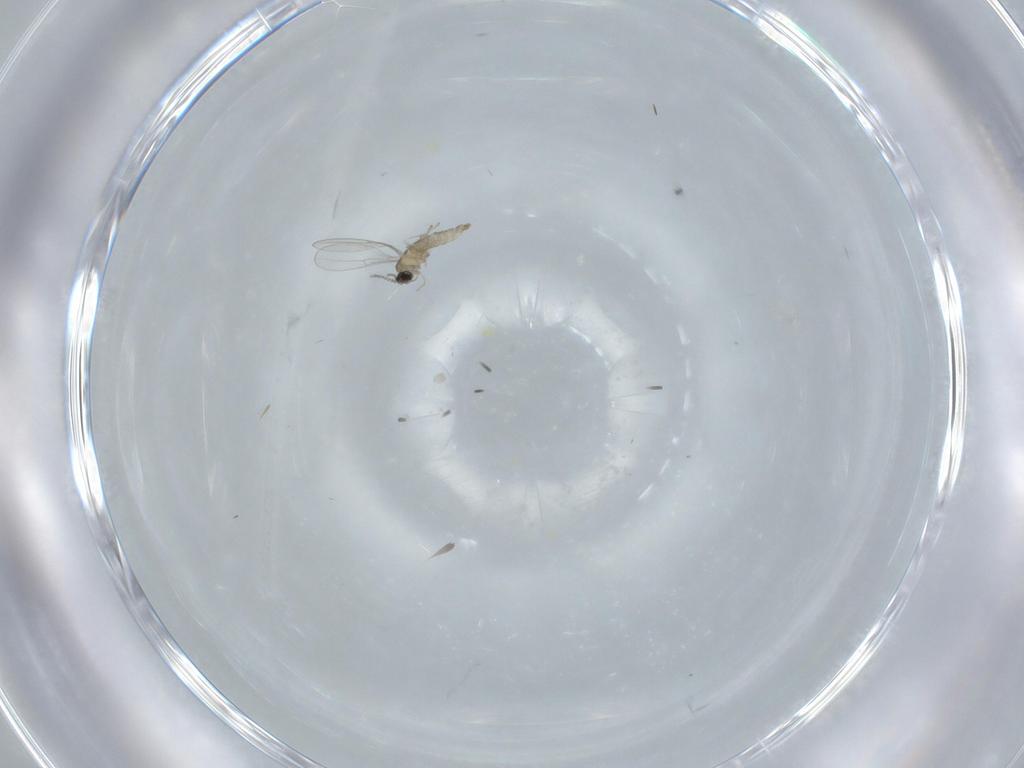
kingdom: Animalia
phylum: Arthropoda
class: Insecta
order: Diptera
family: Cecidomyiidae
